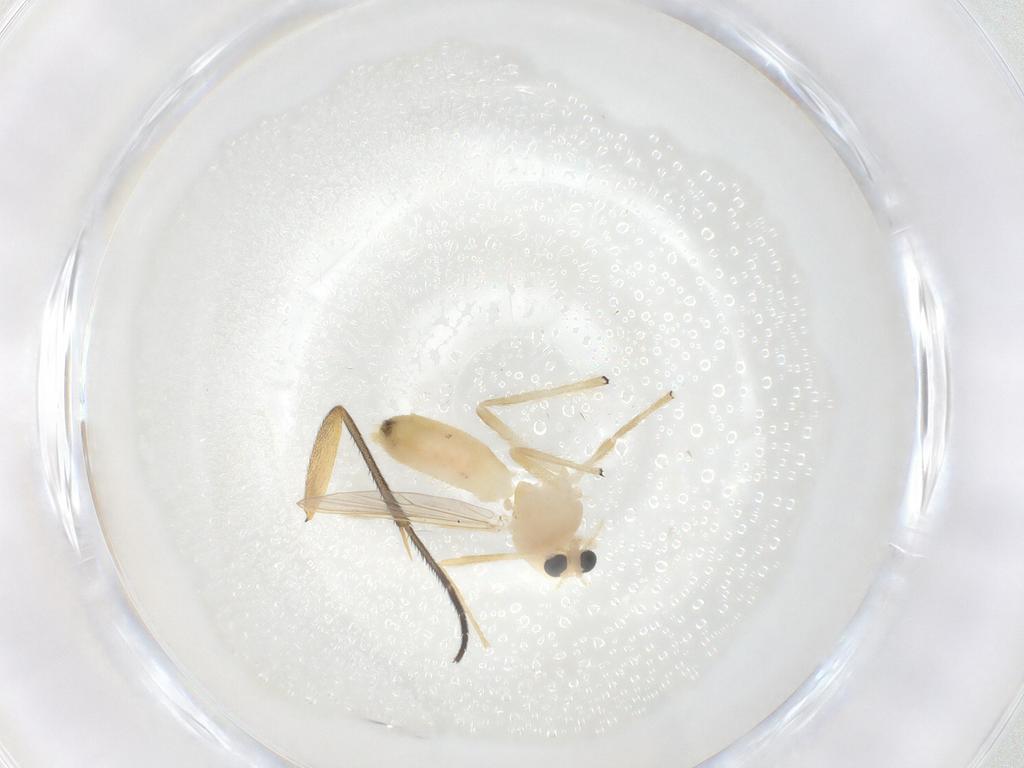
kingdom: Animalia
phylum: Arthropoda
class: Insecta
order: Diptera
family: Chironomidae
